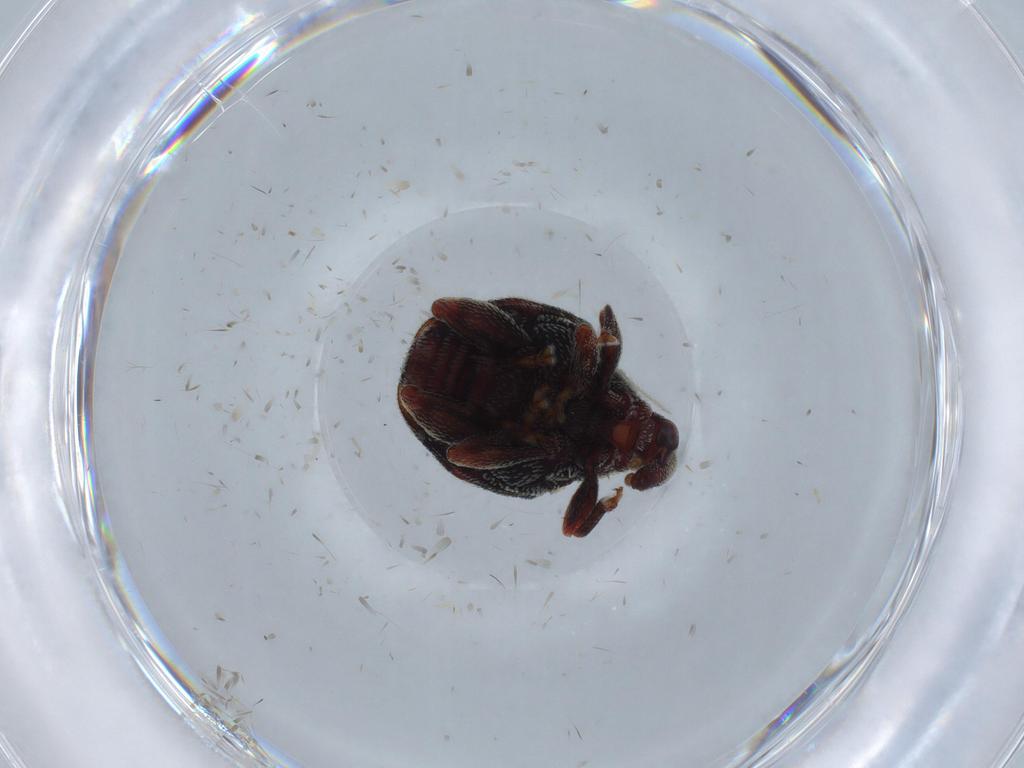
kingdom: Animalia
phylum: Arthropoda
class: Insecta
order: Coleoptera
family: Curculionidae
